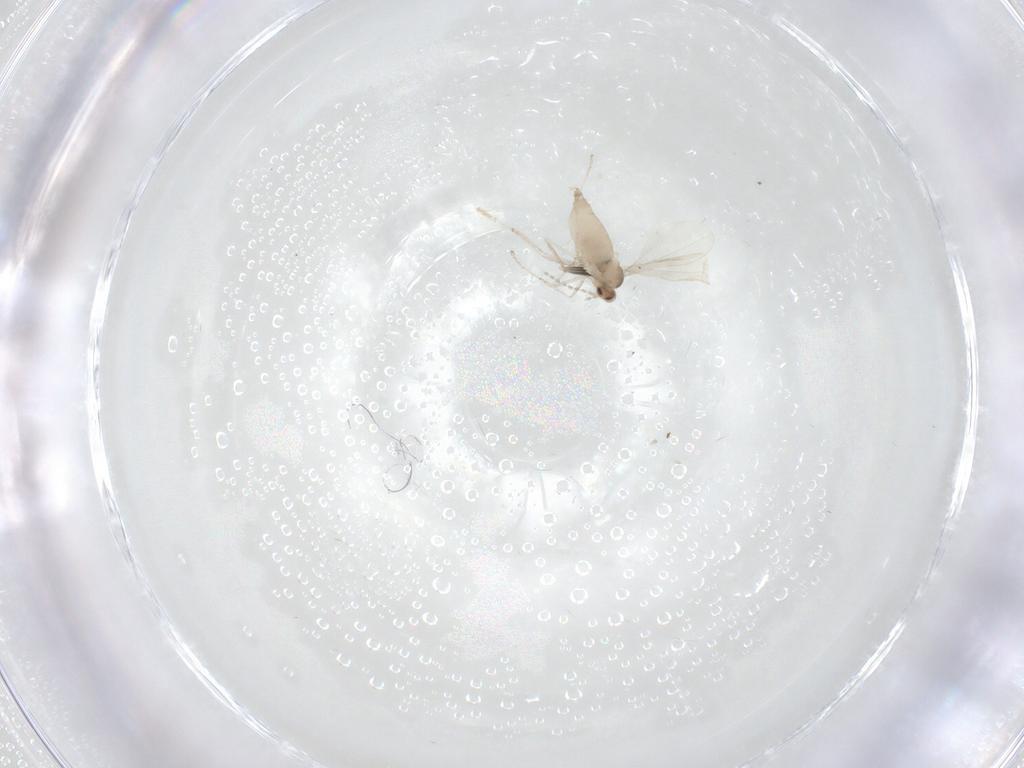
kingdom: Animalia
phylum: Arthropoda
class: Insecta
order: Diptera
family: Cecidomyiidae
